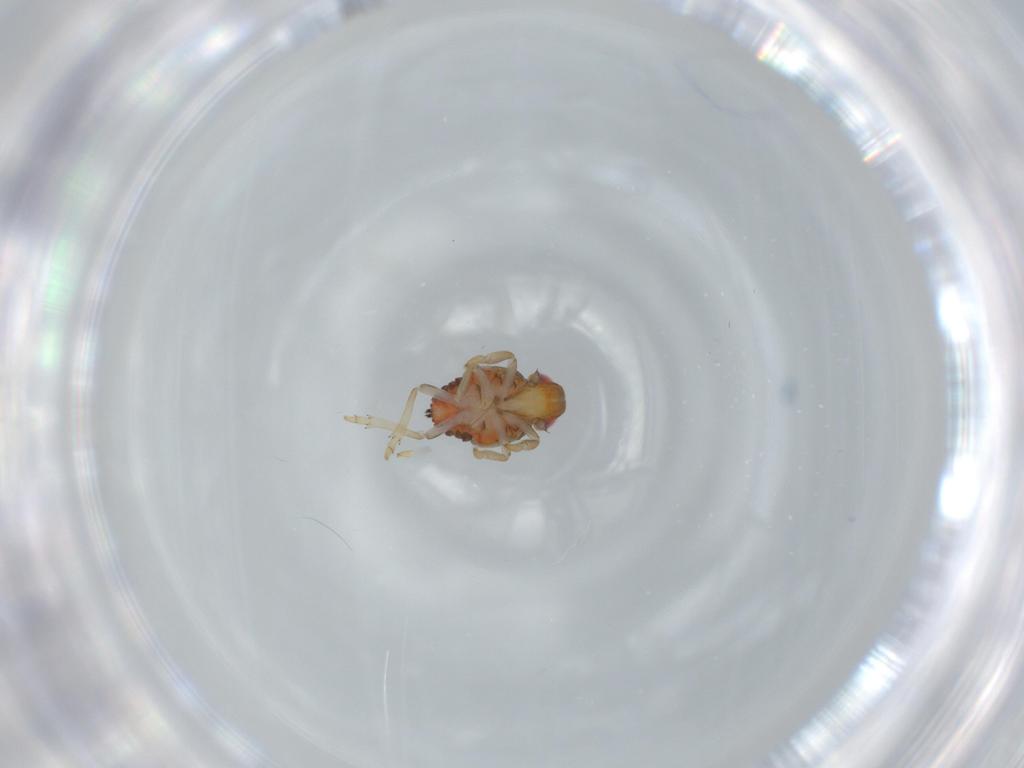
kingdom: Animalia
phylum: Arthropoda
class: Insecta
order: Hemiptera
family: Issidae
